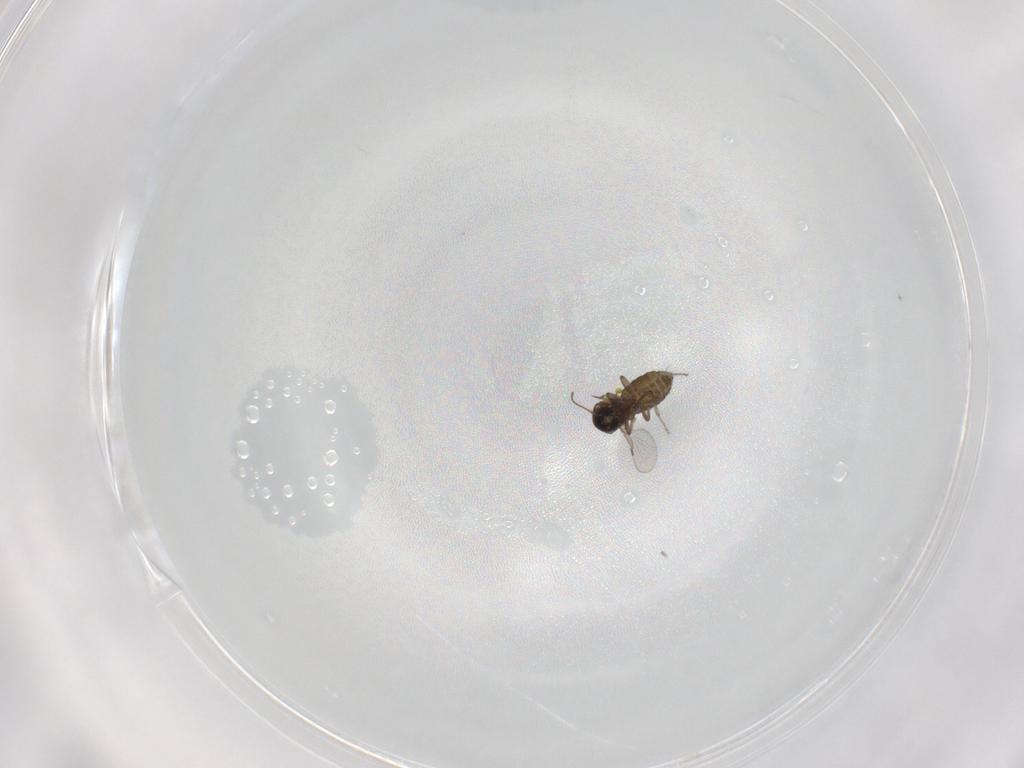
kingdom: Animalia
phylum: Arthropoda
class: Insecta
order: Diptera
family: Ceratopogonidae
